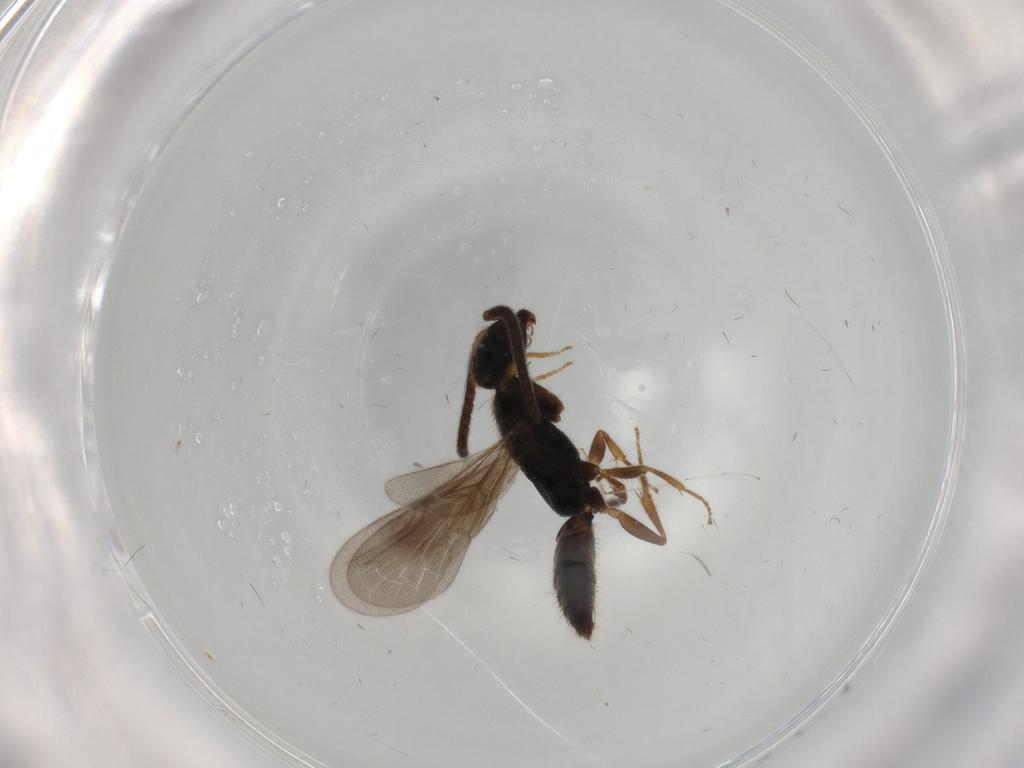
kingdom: Animalia
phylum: Arthropoda
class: Insecta
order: Hymenoptera
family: Bethylidae
